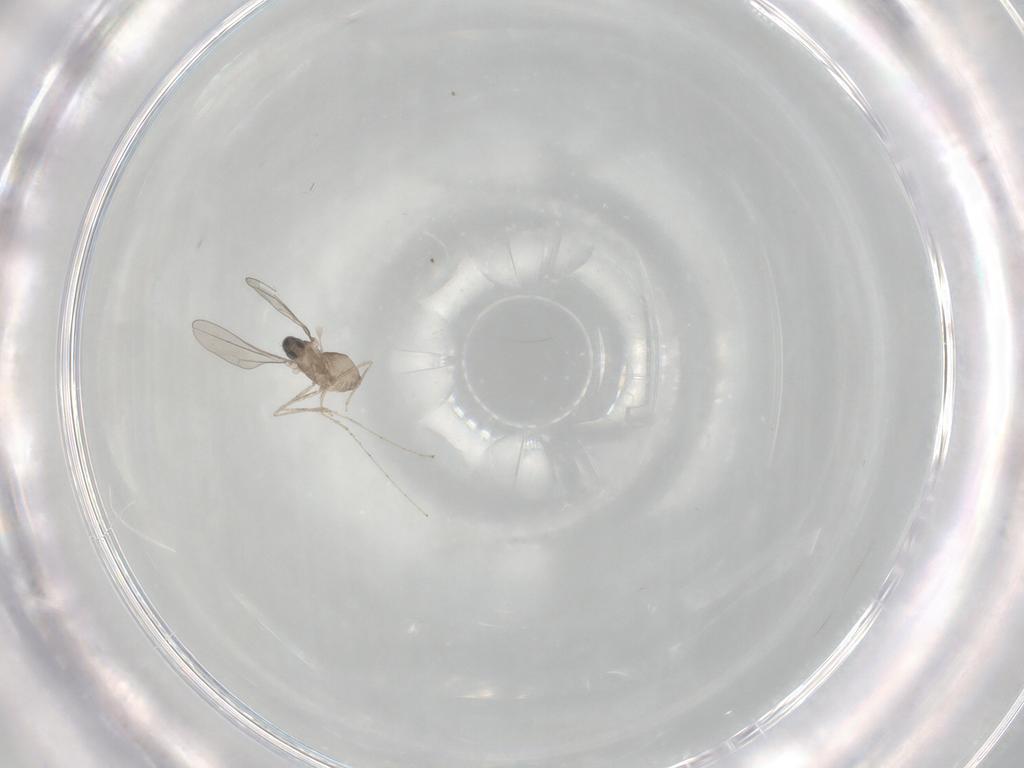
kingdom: Animalia
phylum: Arthropoda
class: Insecta
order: Diptera
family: Cecidomyiidae
